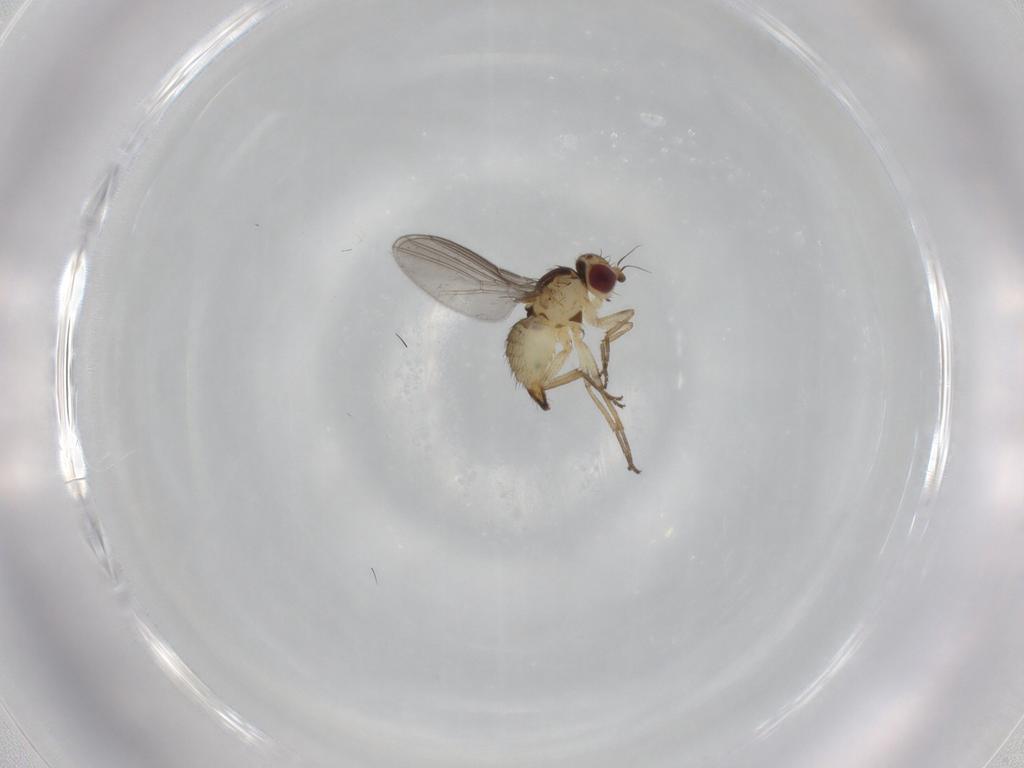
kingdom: Animalia
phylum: Arthropoda
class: Insecta
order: Diptera
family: Agromyzidae
